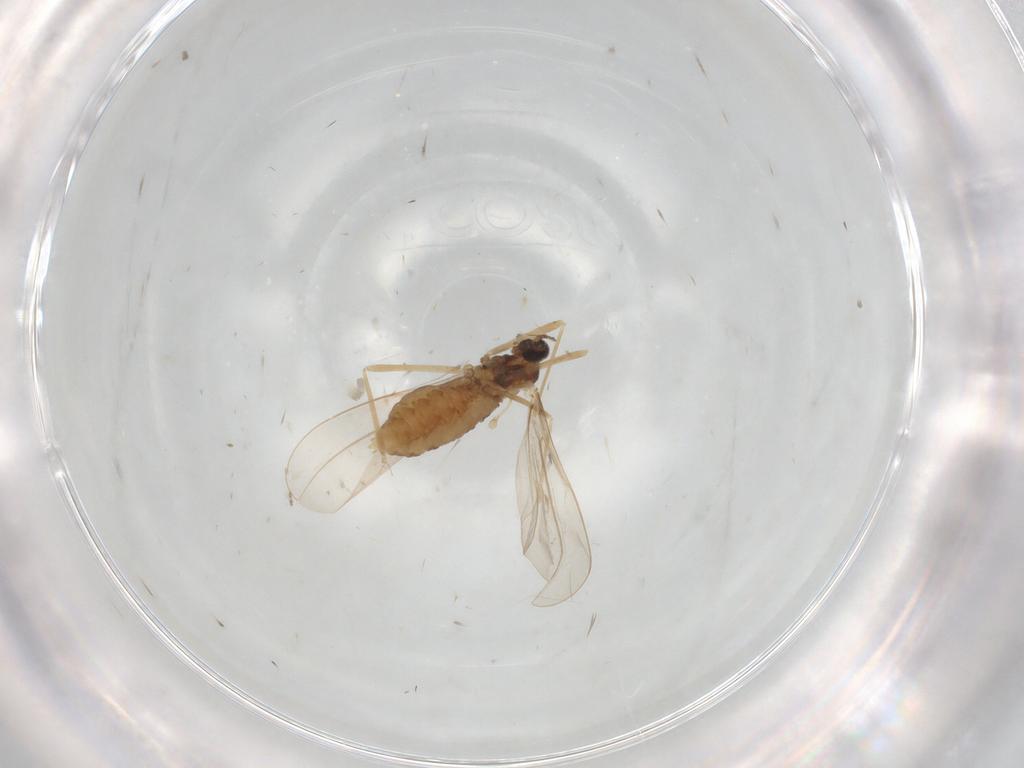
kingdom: Animalia
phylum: Arthropoda
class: Insecta
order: Diptera
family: Cecidomyiidae
